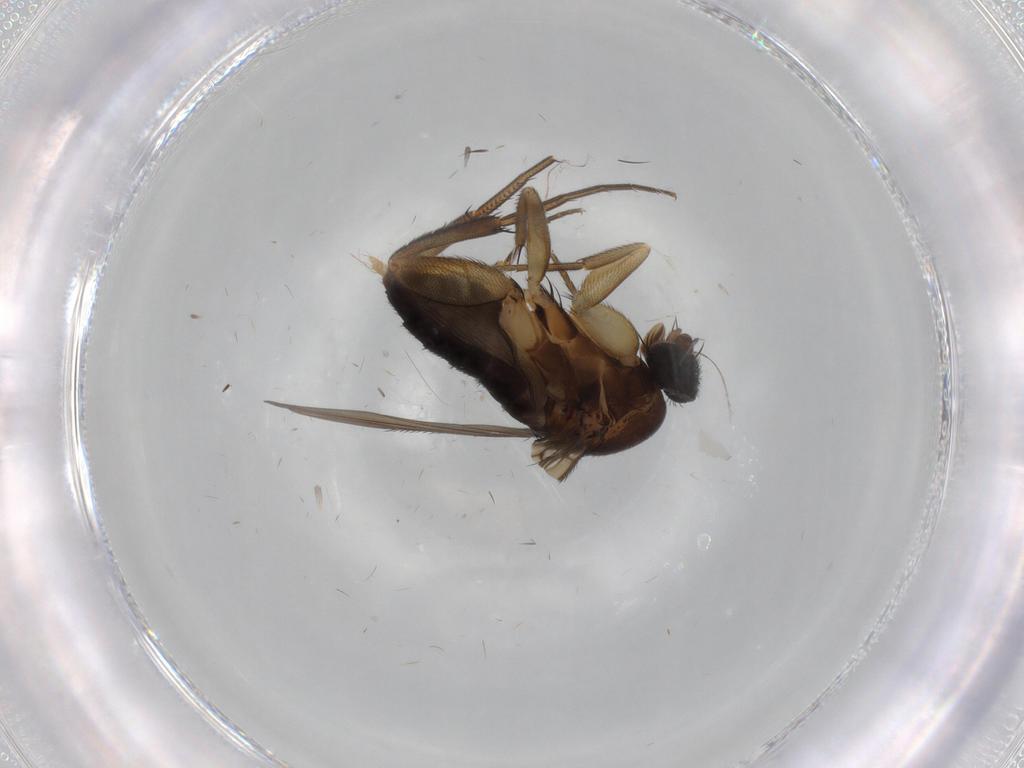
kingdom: Animalia
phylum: Arthropoda
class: Insecta
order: Diptera
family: Phoridae
